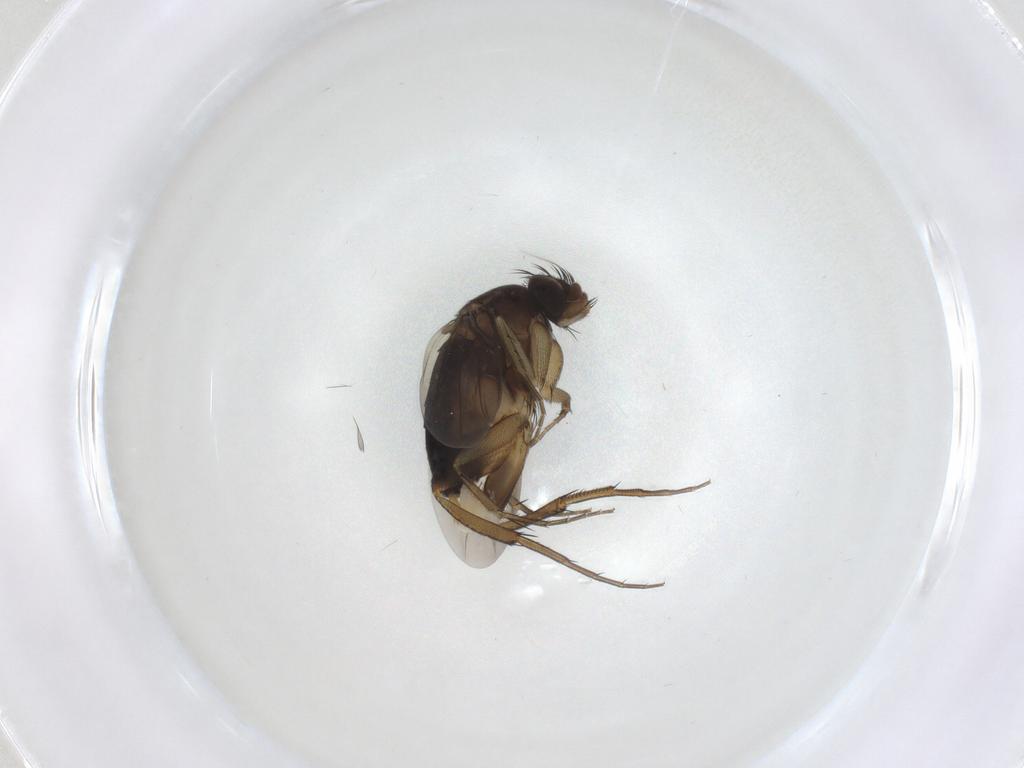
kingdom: Animalia
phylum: Arthropoda
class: Insecta
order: Diptera
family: Phoridae
